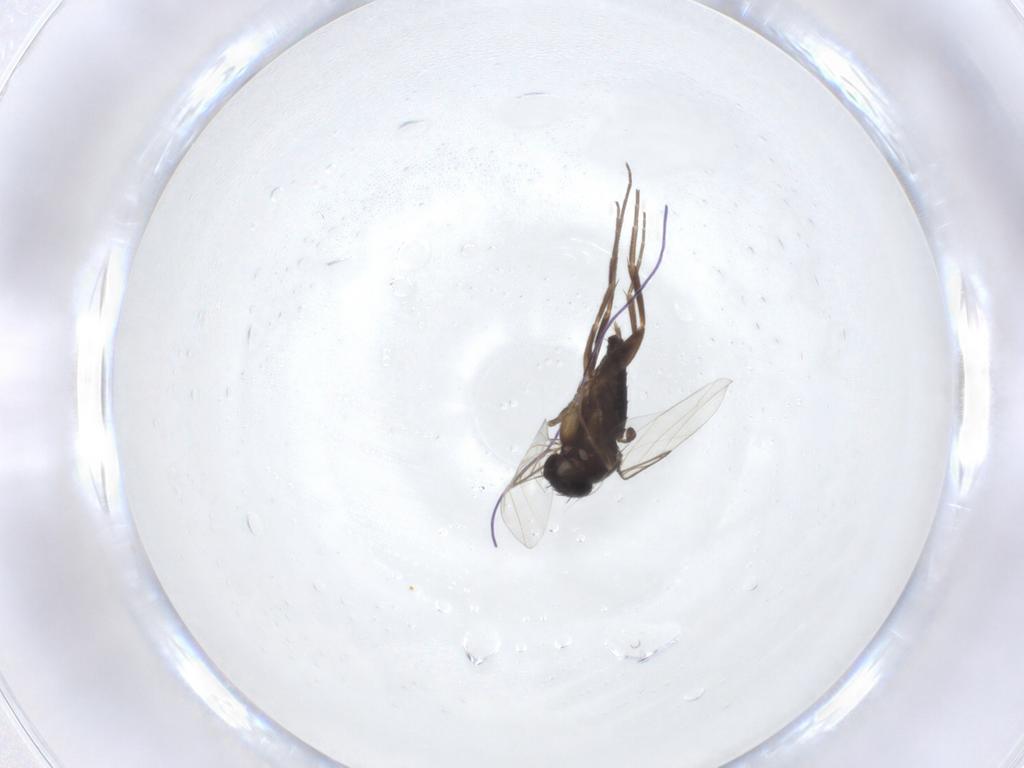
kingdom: Animalia
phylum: Arthropoda
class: Insecta
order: Diptera
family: Phoridae
